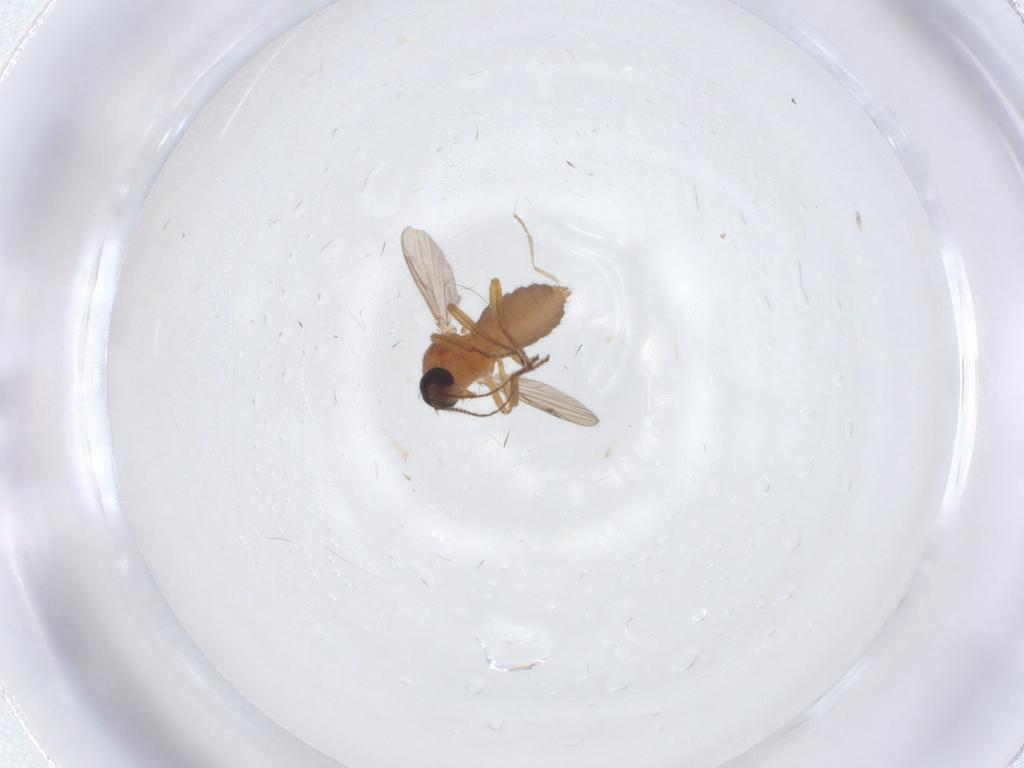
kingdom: Animalia
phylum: Arthropoda
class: Insecta
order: Diptera
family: Ceratopogonidae
